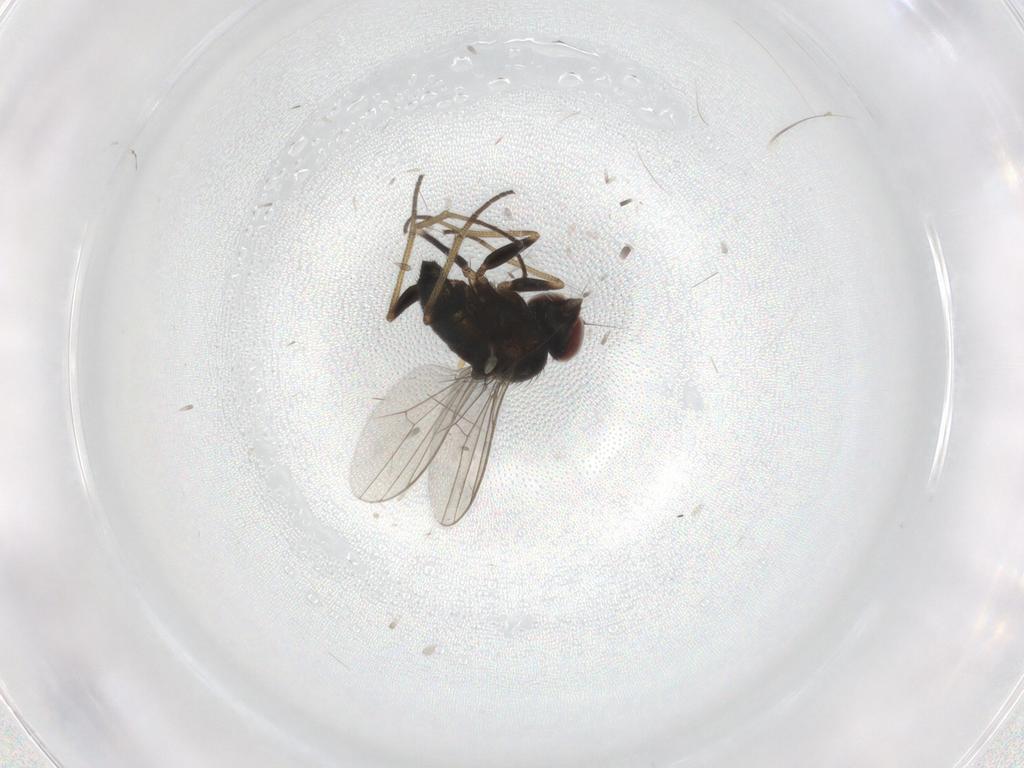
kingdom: Animalia
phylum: Arthropoda
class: Insecta
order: Diptera
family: Dolichopodidae
